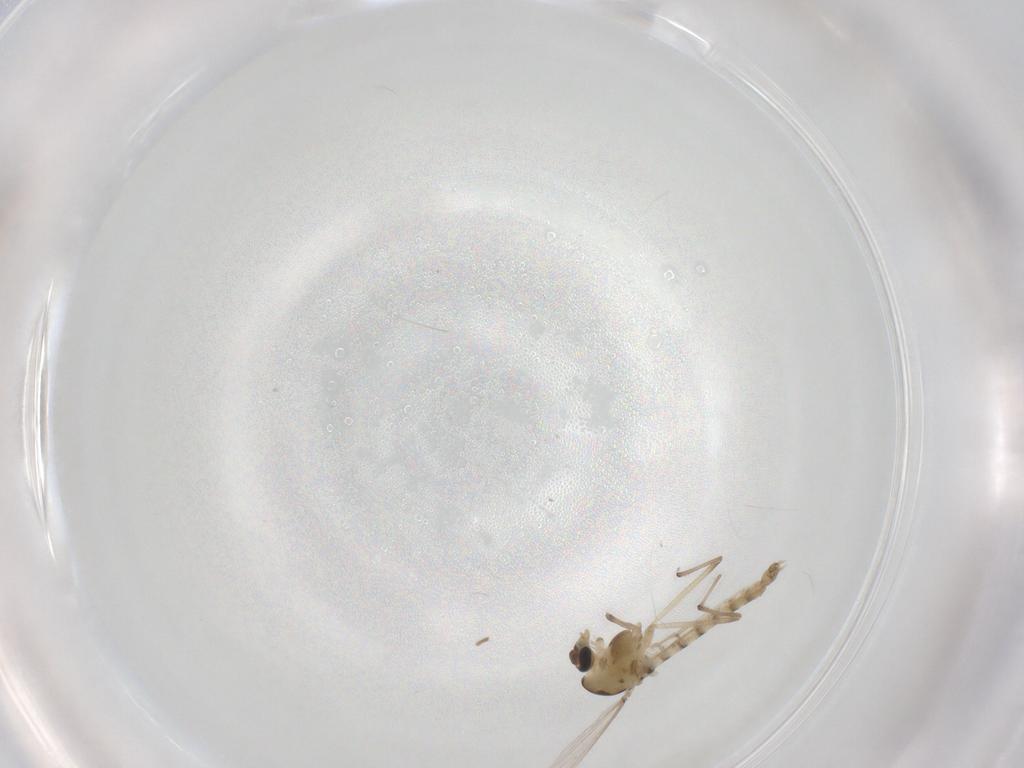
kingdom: Animalia
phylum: Arthropoda
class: Insecta
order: Diptera
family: Chironomidae
